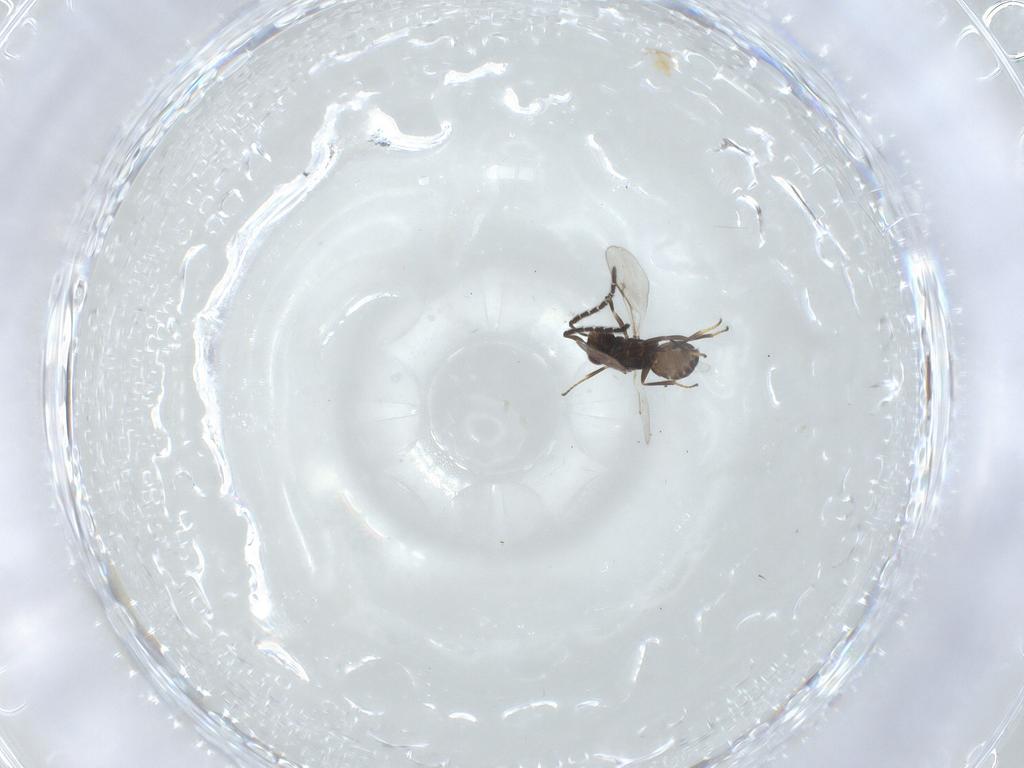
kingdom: Animalia
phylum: Arthropoda
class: Insecta
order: Hymenoptera
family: Encyrtidae
